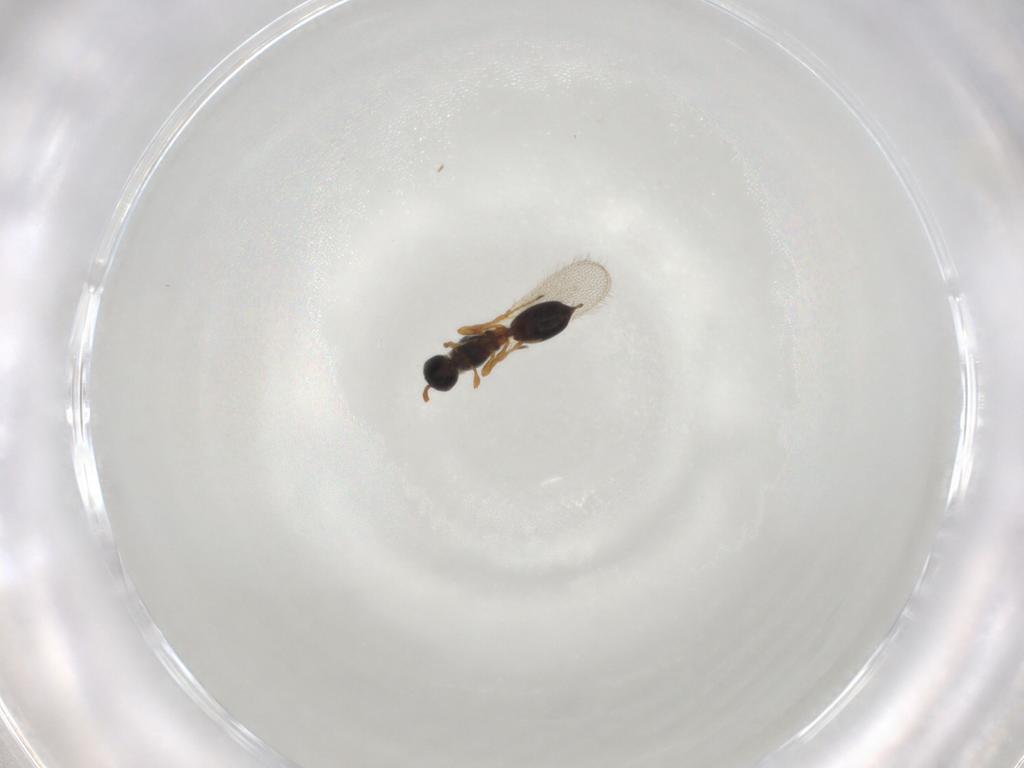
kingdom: Animalia
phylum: Arthropoda
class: Insecta
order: Hymenoptera
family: Diapriidae
